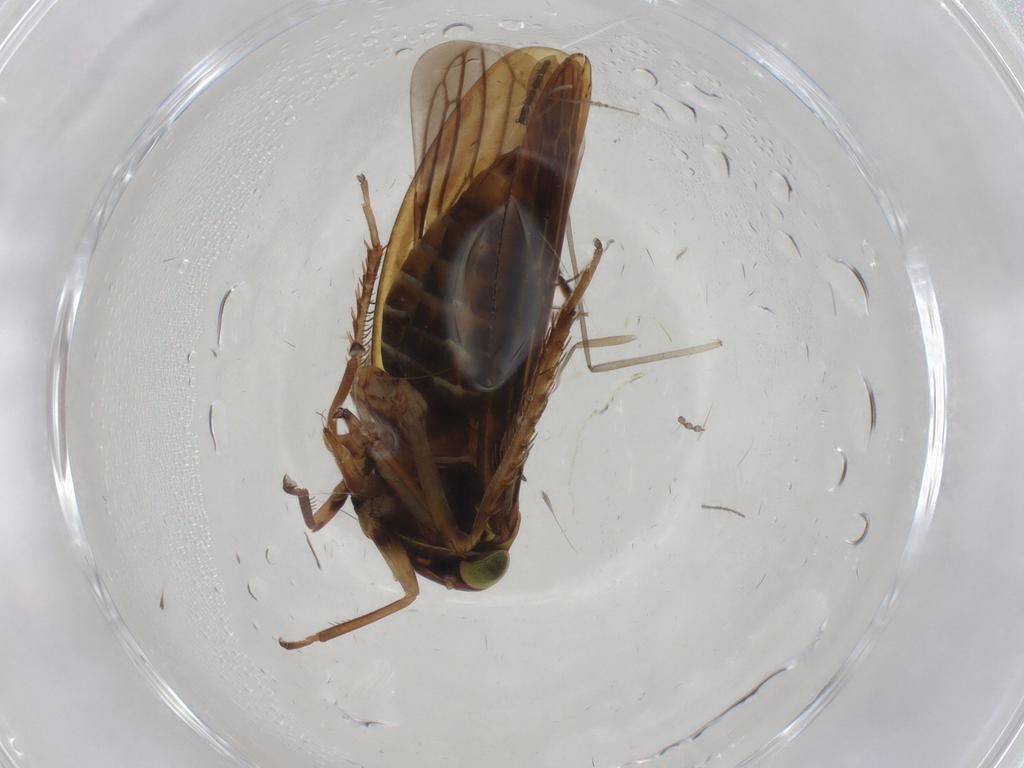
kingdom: Animalia
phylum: Arthropoda
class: Insecta
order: Hemiptera
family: Cicadellidae
